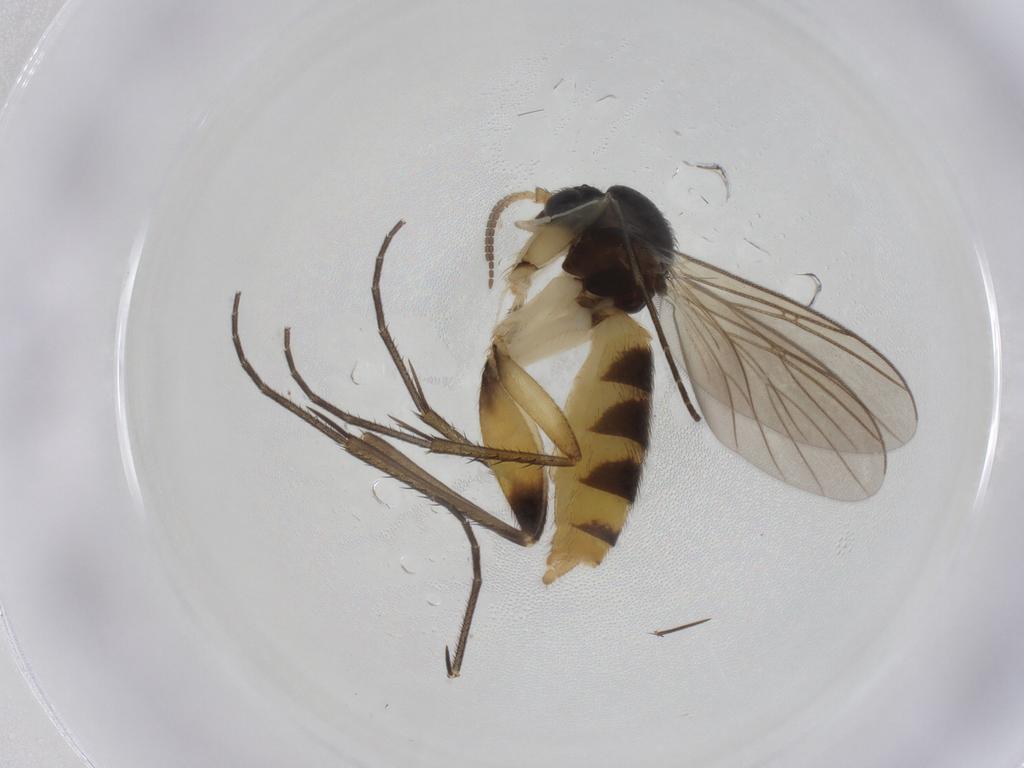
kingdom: Animalia
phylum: Arthropoda
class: Insecta
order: Diptera
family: Mycetophilidae
